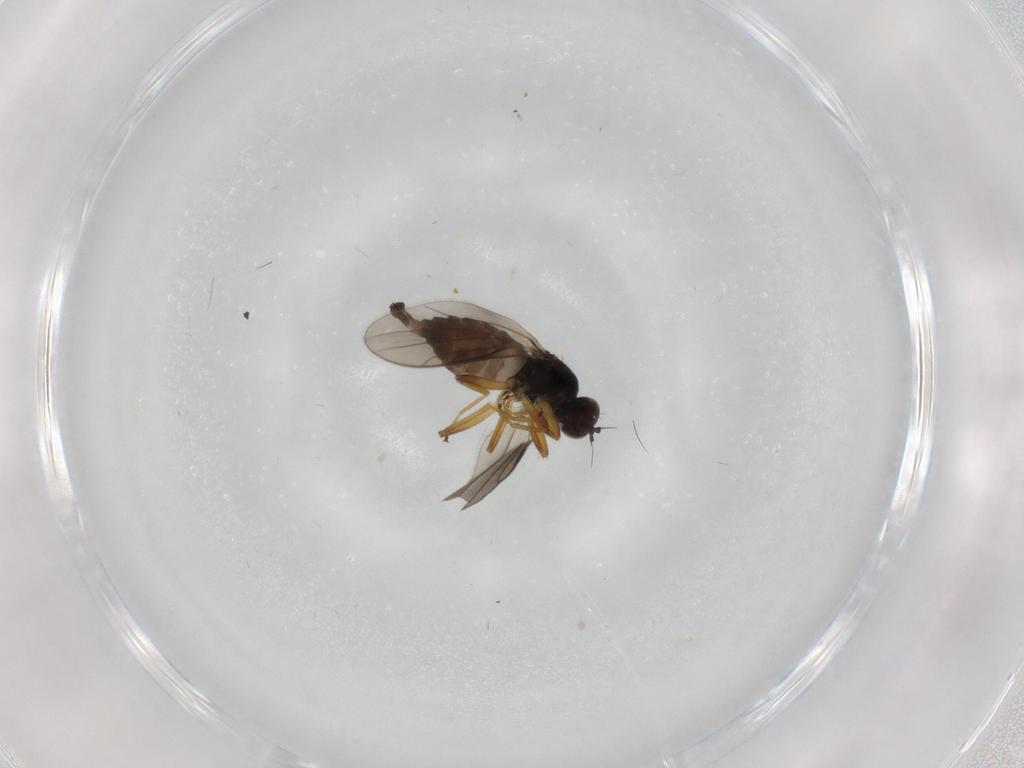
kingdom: Animalia
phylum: Arthropoda
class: Insecta
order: Diptera
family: Hybotidae
